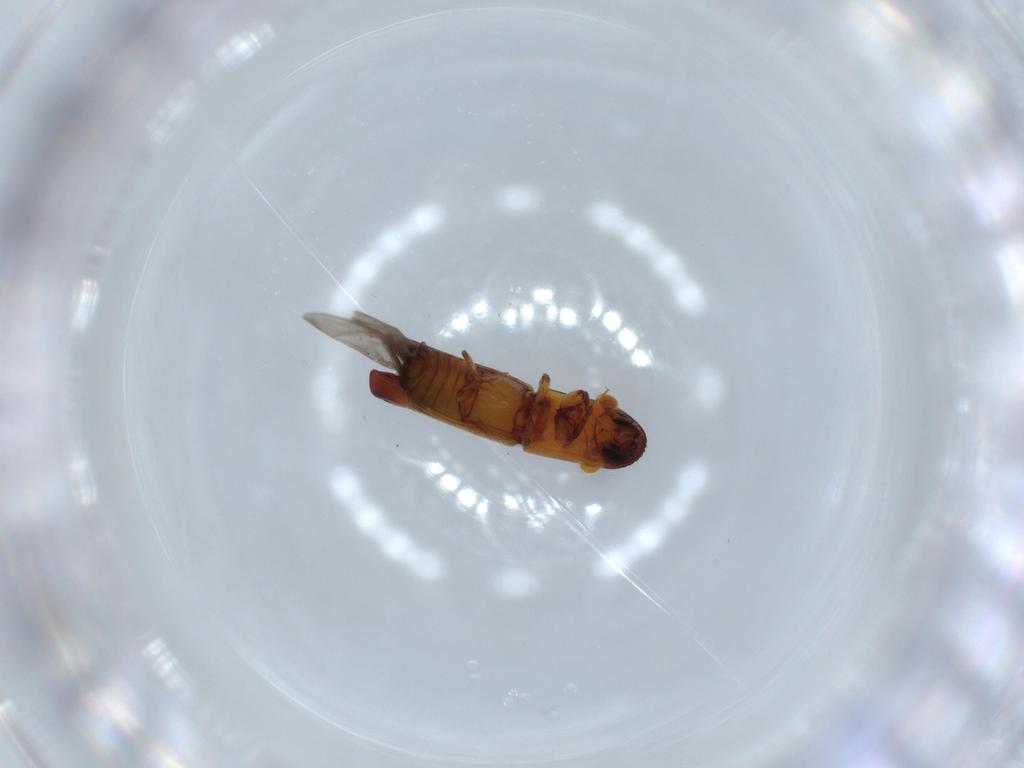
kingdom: Animalia
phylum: Arthropoda
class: Insecta
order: Coleoptera
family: Curculionidae
